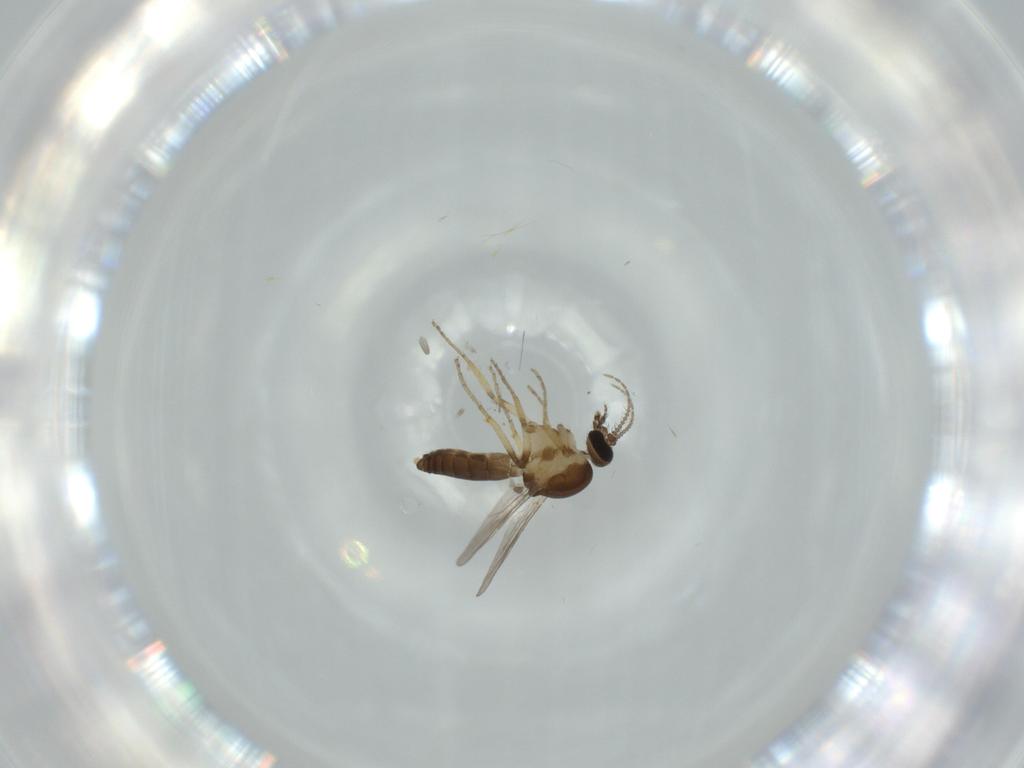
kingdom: Animalia
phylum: Arthropoda
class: Insecta
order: Diptera
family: Ceratopogonidae
